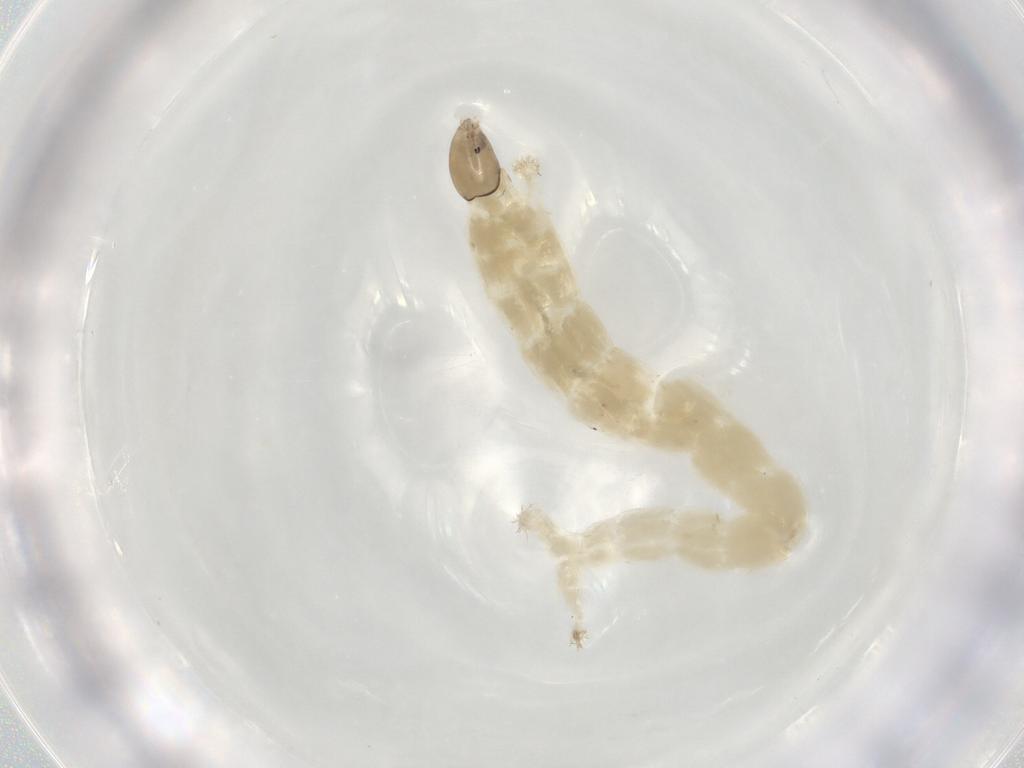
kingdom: Animalia
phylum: Arthropoda
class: Insecta
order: Diptera
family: Chironomidae
